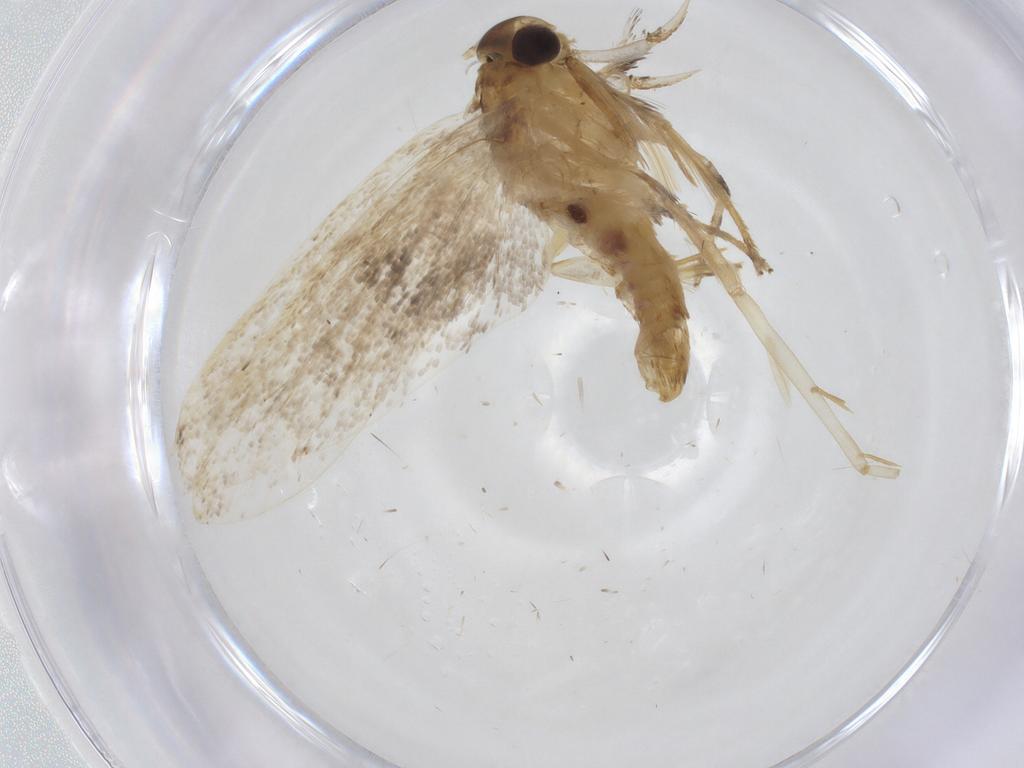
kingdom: Animalia
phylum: Arthropoda
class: Insecta
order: Lepidoptera
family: Lecithoceridae
